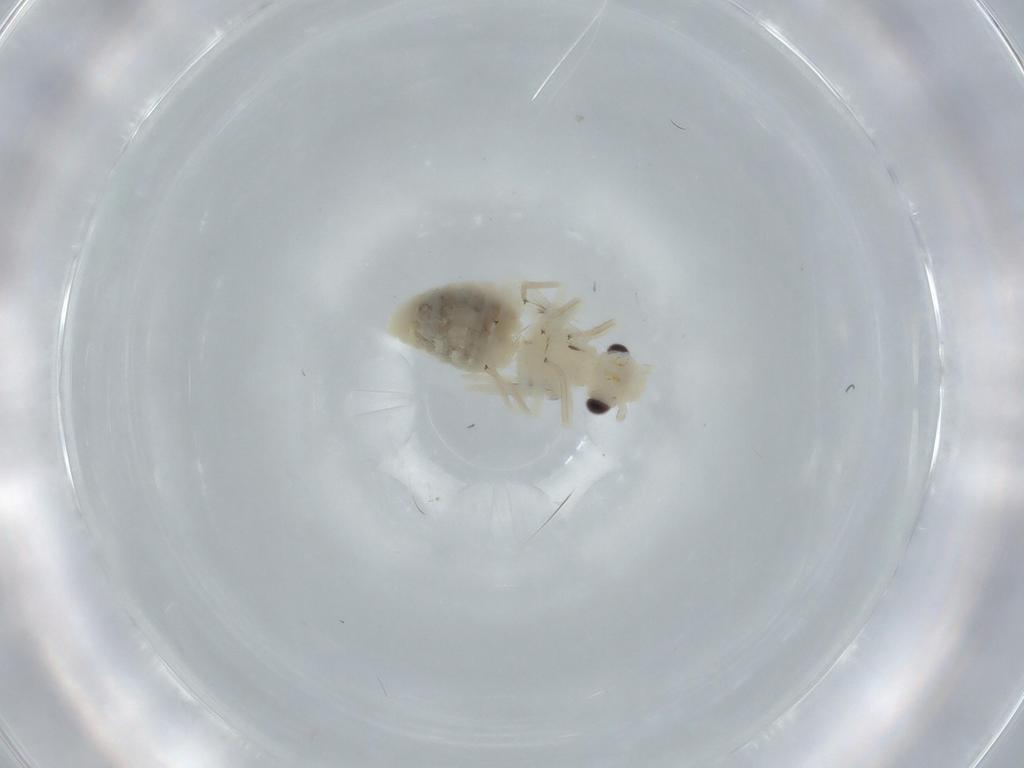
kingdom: Animalia
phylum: Arthropoda
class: Insecta
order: Psocodea
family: Caeciliusidae
